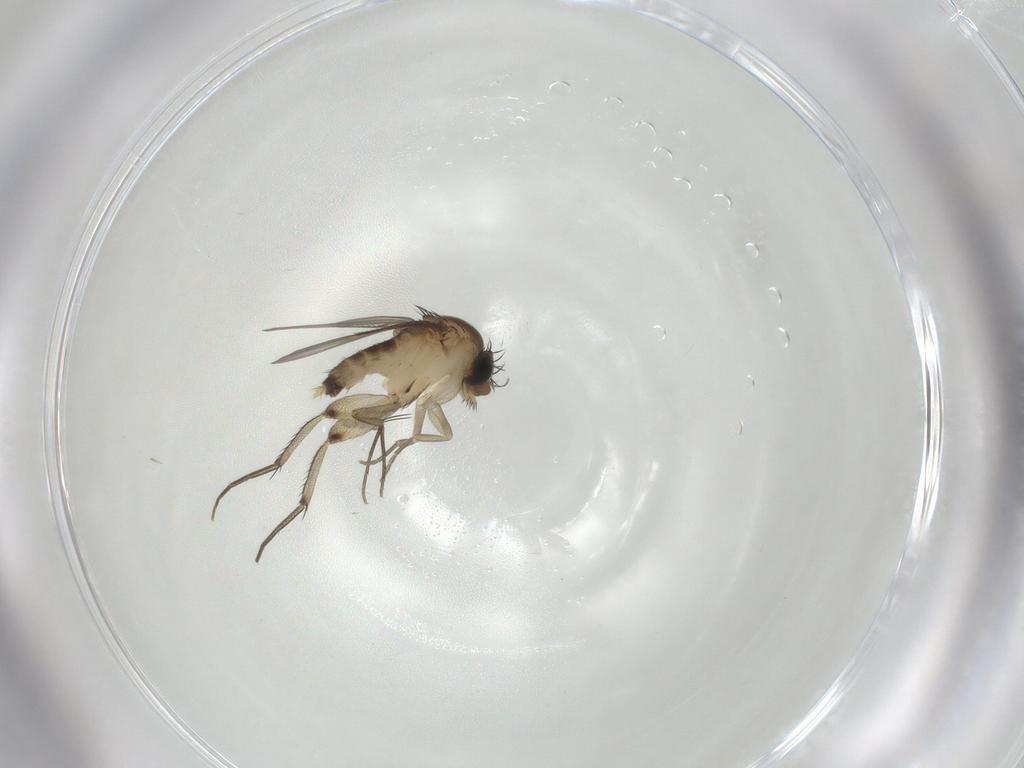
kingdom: Animalia
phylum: Arthropoda
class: Insecta
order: Diptera
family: Phoridae
